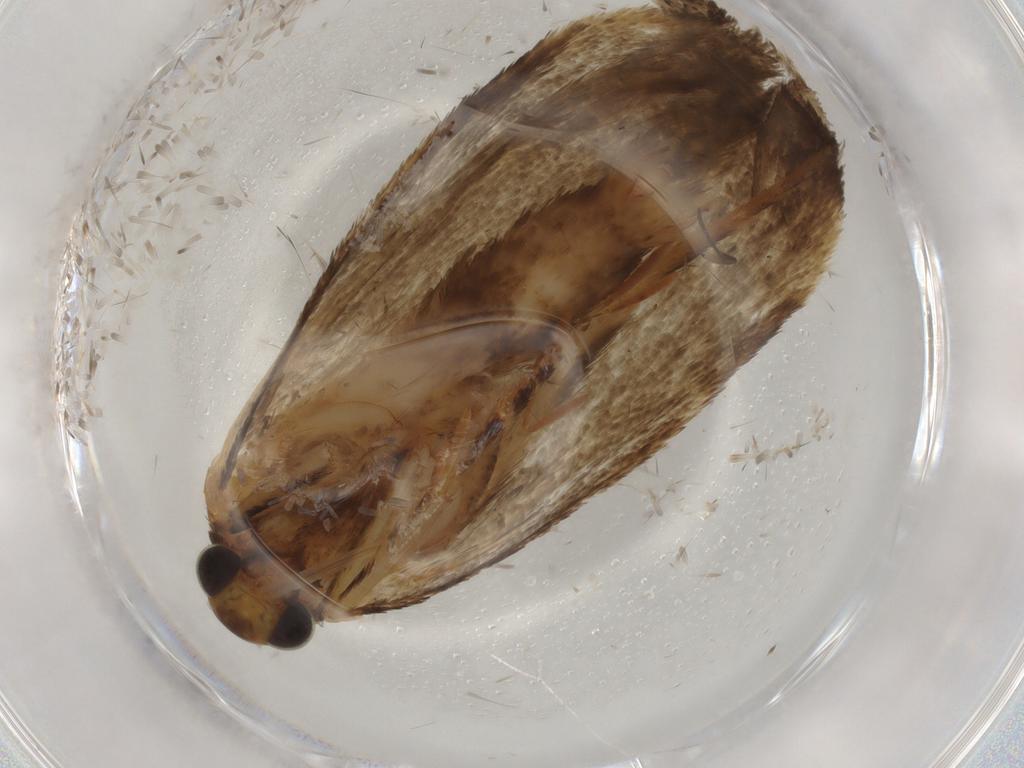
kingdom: Animalia
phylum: Arthropoda
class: Insecta
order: Lepidoptera
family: Oecophoridae
